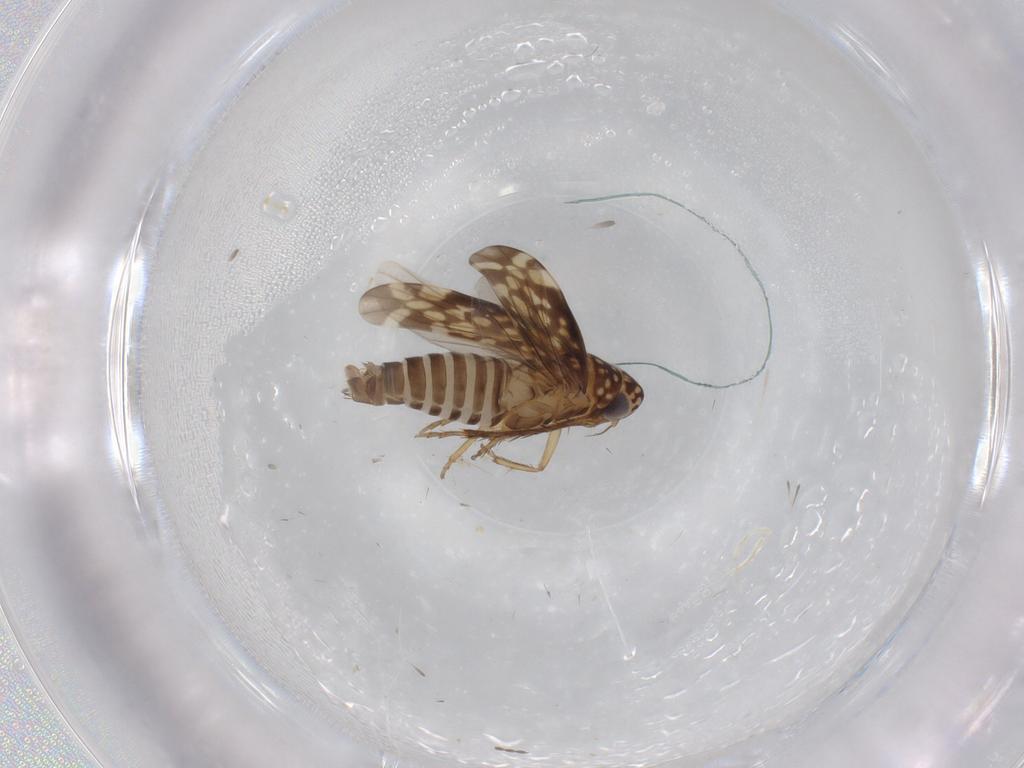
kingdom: Animalia
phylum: Arthropoda
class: Insecta
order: Hemiptera
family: Cicadellidae
